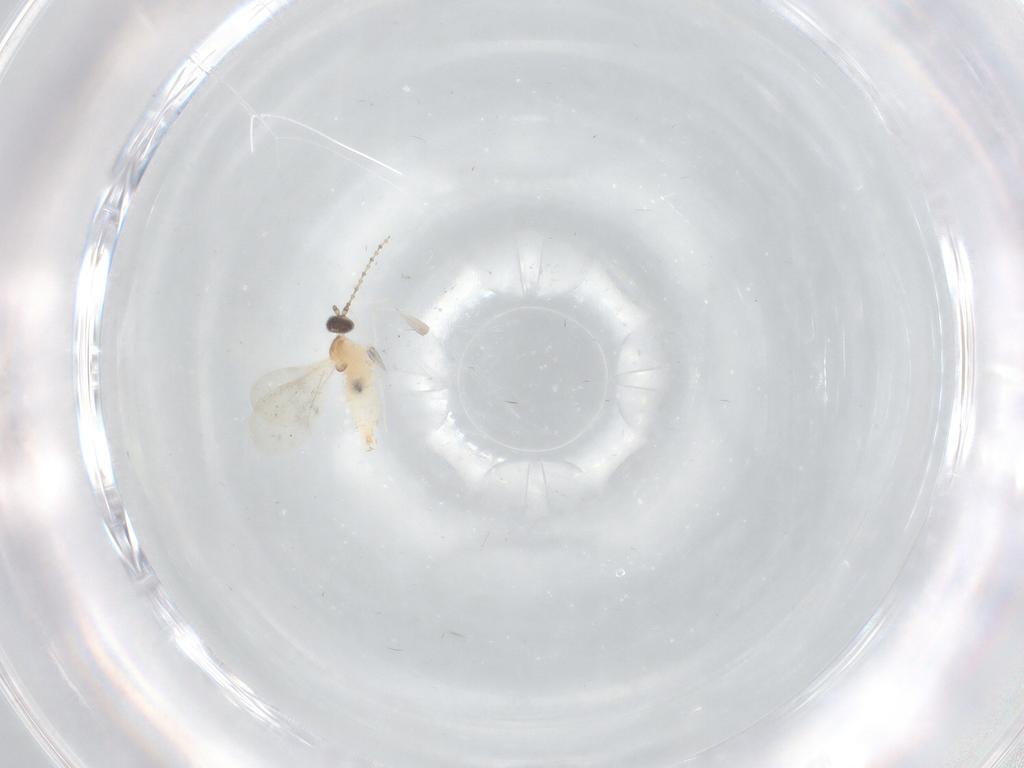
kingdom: Animalia
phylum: Arthropoda
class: Insecta
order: Diptera
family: Cecidomyiidae
